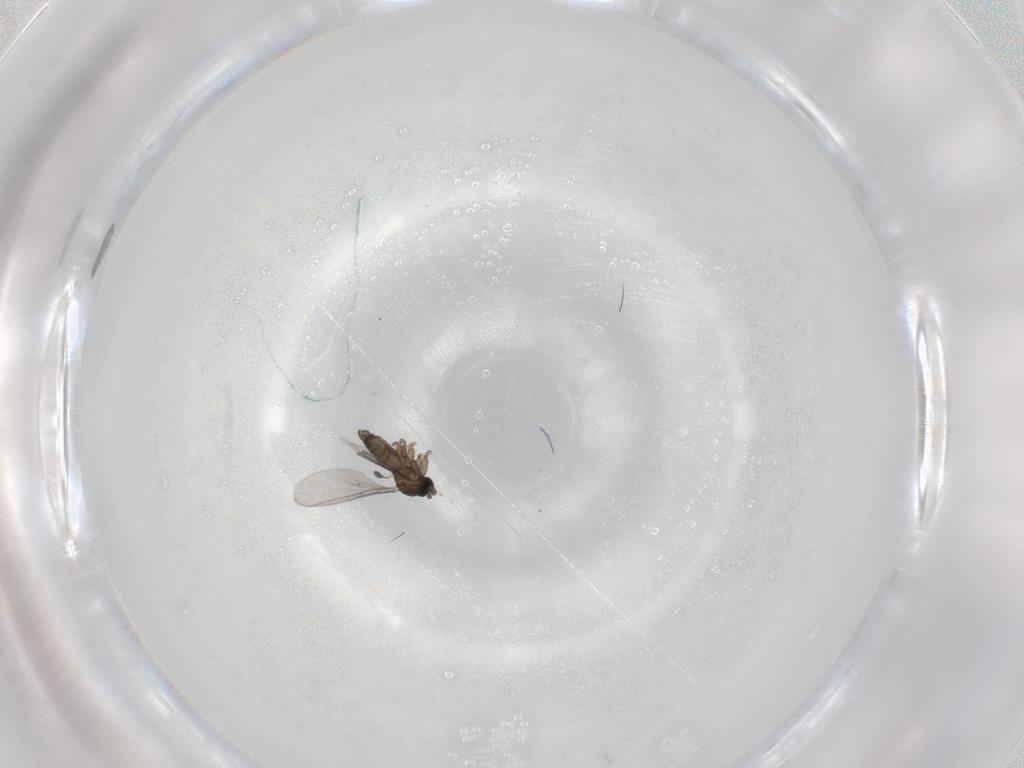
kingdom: Animalia
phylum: Arthropoda
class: Insecta
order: Diptera
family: Sciaridae
